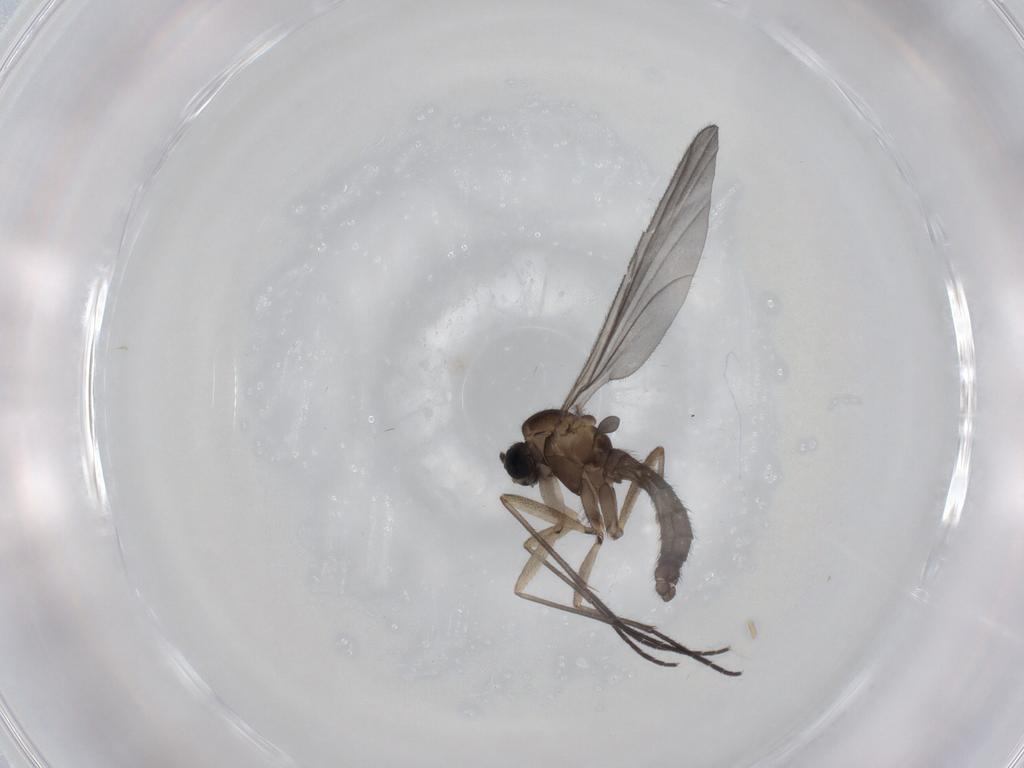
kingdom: Animalia
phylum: Arthropoda
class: Insecta
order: Diptera
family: Sciaridae
